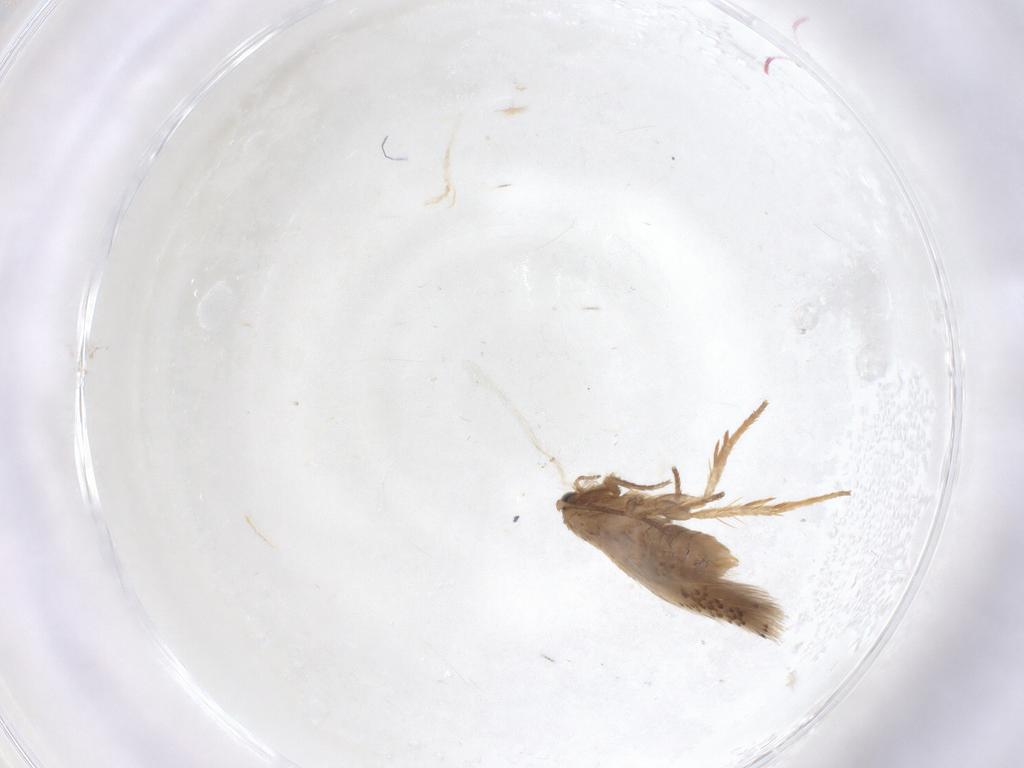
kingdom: Animalia
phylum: Arthropoda
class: Insecta
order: Lepidoptera
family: Nepticulidae
